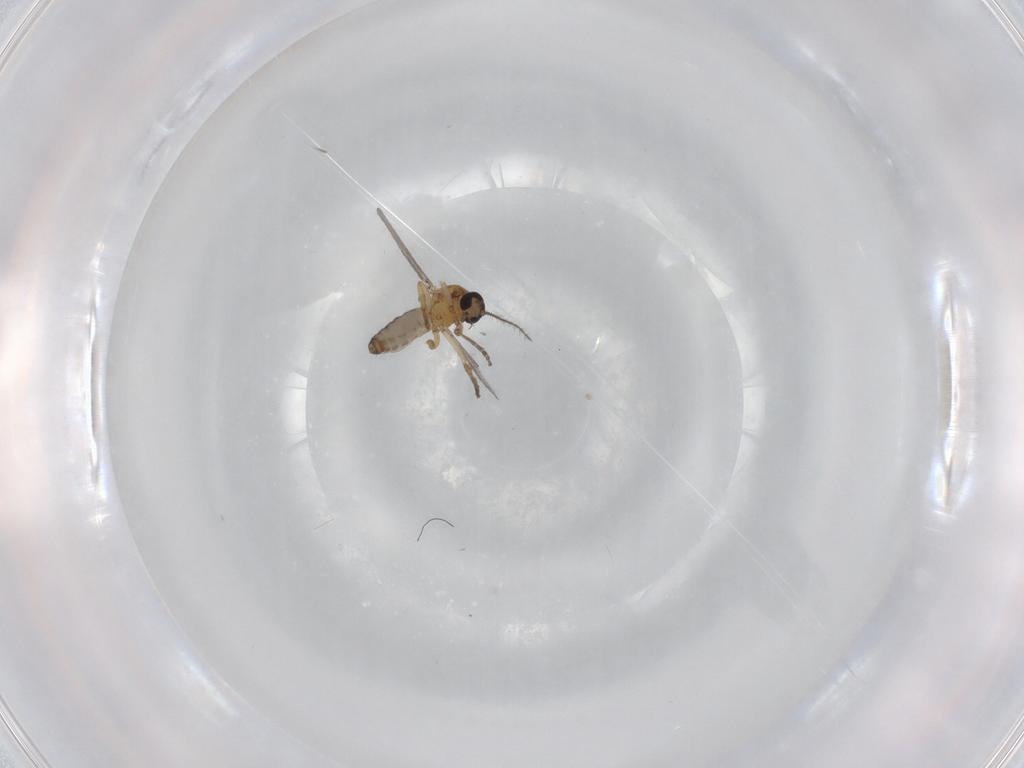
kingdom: Animalia
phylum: Arthropoda
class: Insecta
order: Diptera
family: Ceratopogonidae
